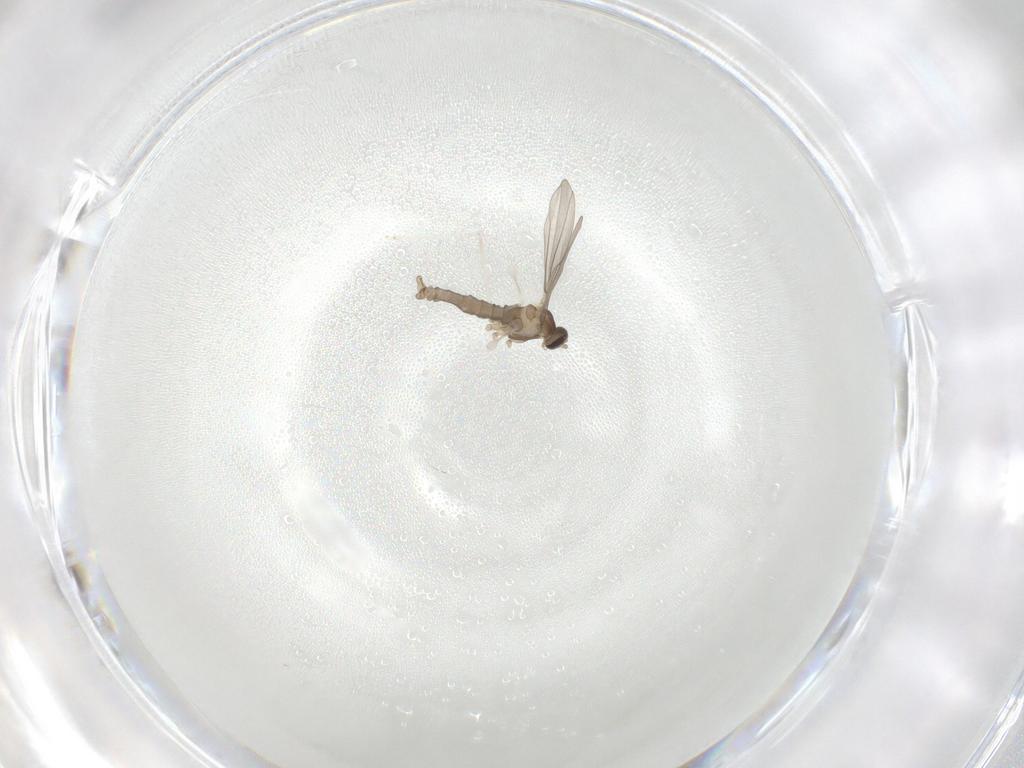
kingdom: Animalia
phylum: Arthropoda
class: Insecta
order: Diptera
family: Cecidomyiidae
